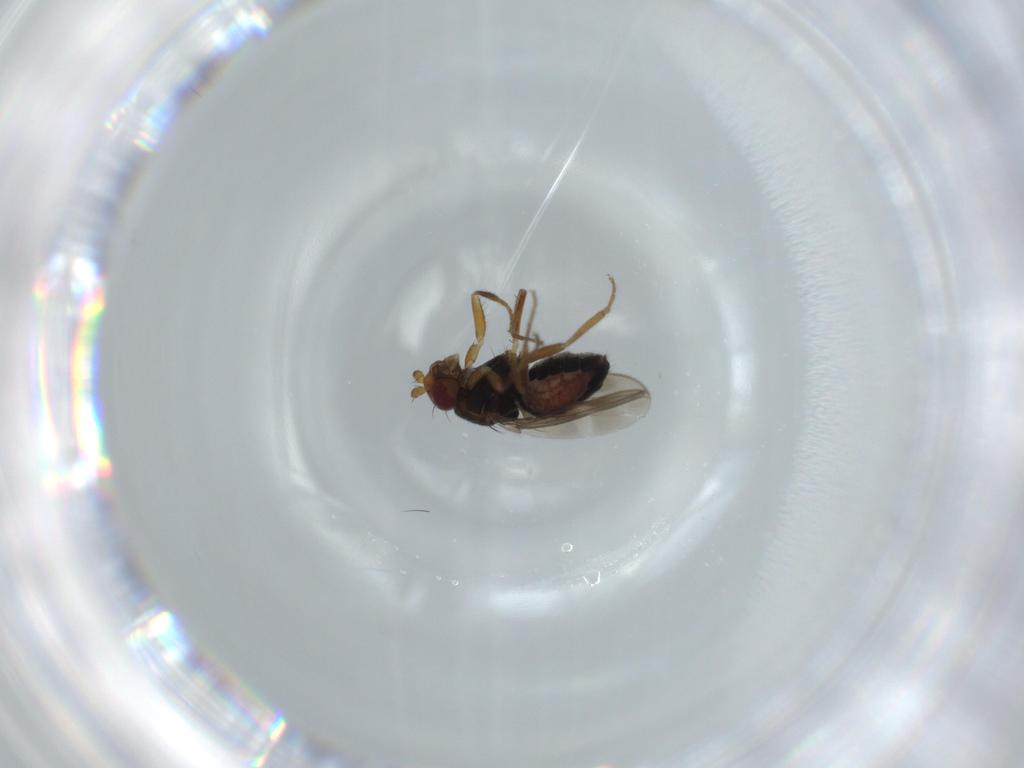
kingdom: Animalia
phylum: Arthropoda
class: Insecta
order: Diptera
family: Sphaeroceridae
